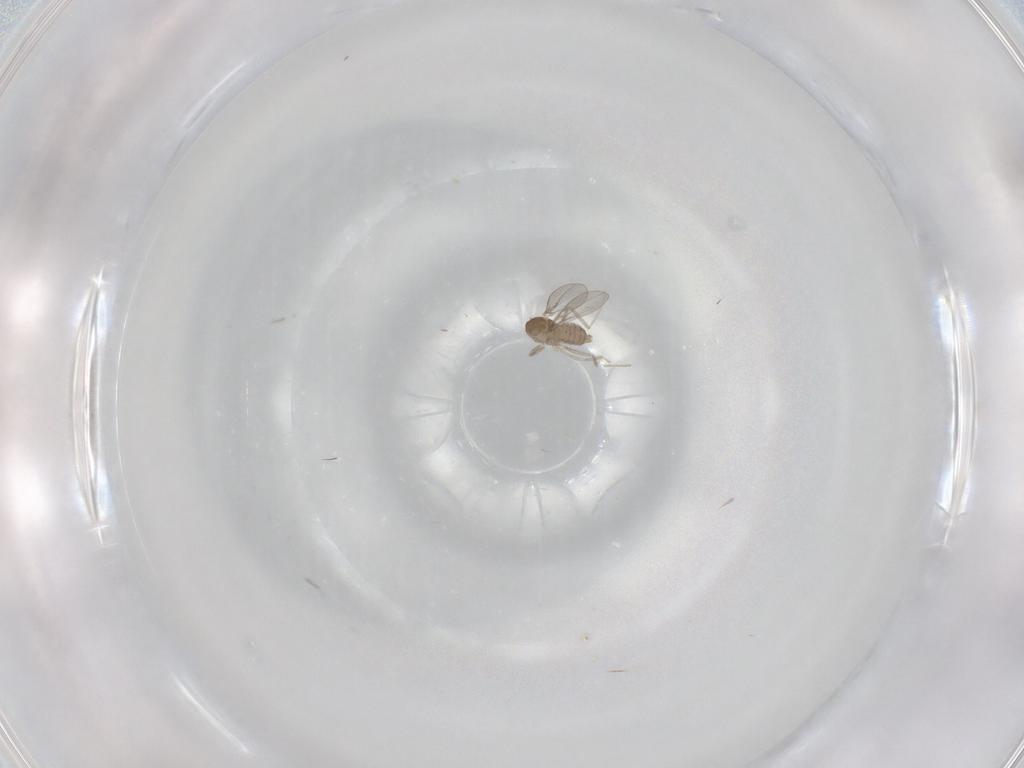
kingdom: Animalia
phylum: Arthropoda
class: Insecta
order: Diptera
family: Cecidomyiidae
